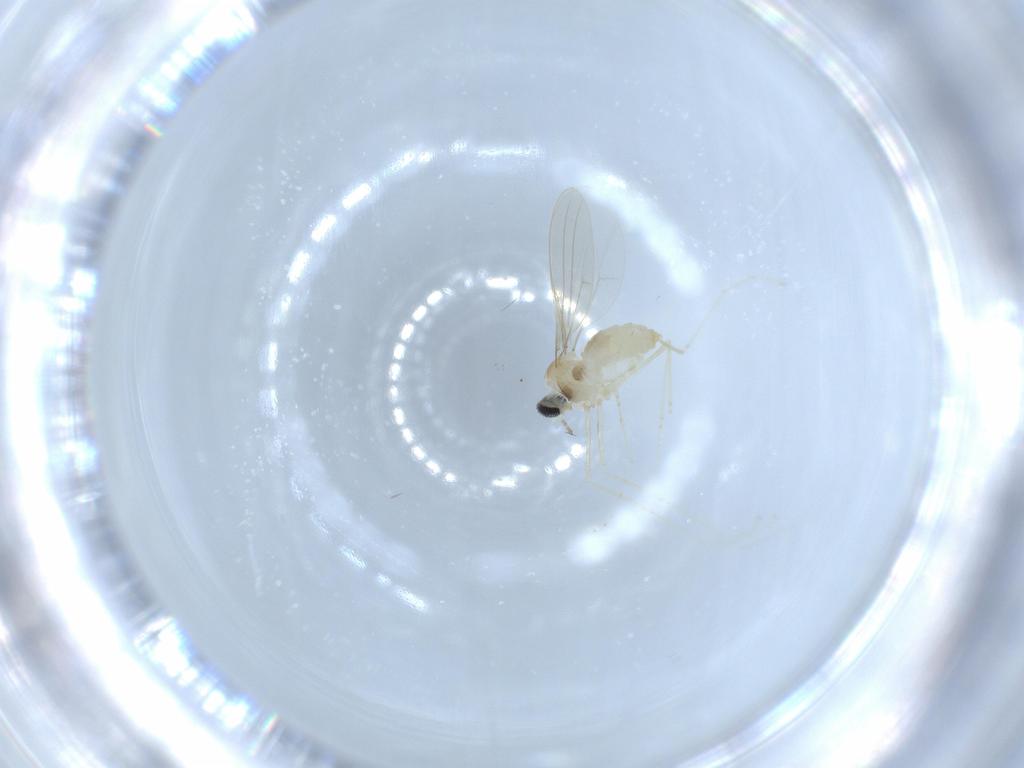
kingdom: Animalia
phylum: Arthropoda
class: Insecta
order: Diptera
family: Cecidomyiidae
